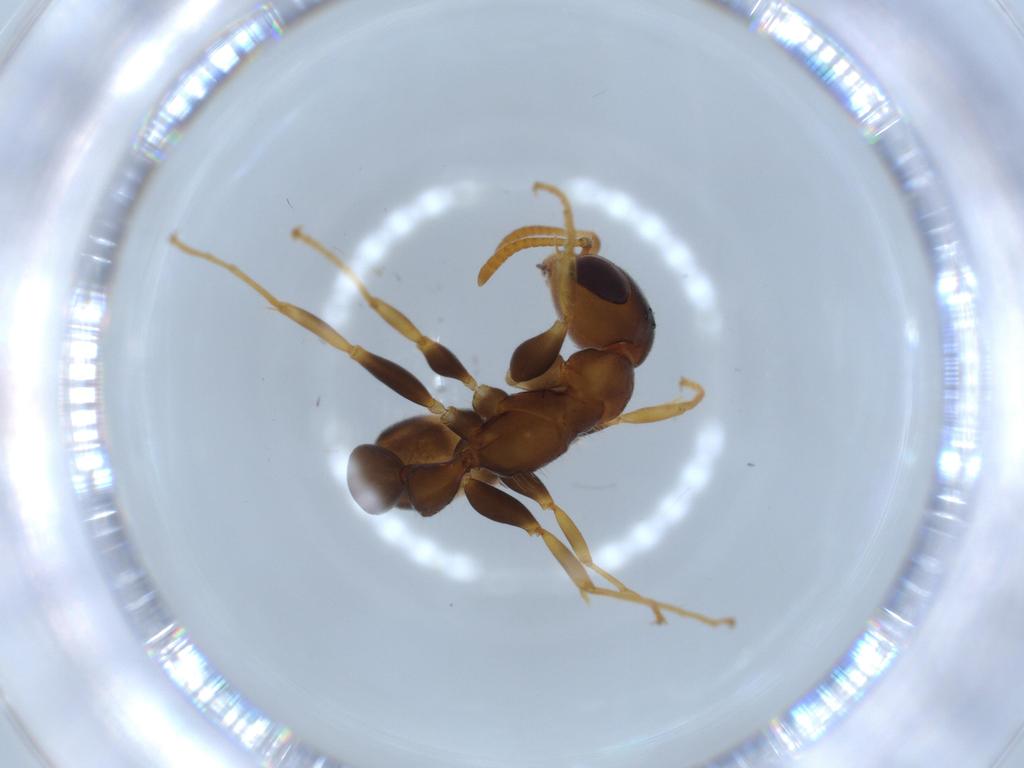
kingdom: Animalia
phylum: Arthropoda
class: Insecta
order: Hymenoptera
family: Formicidae
